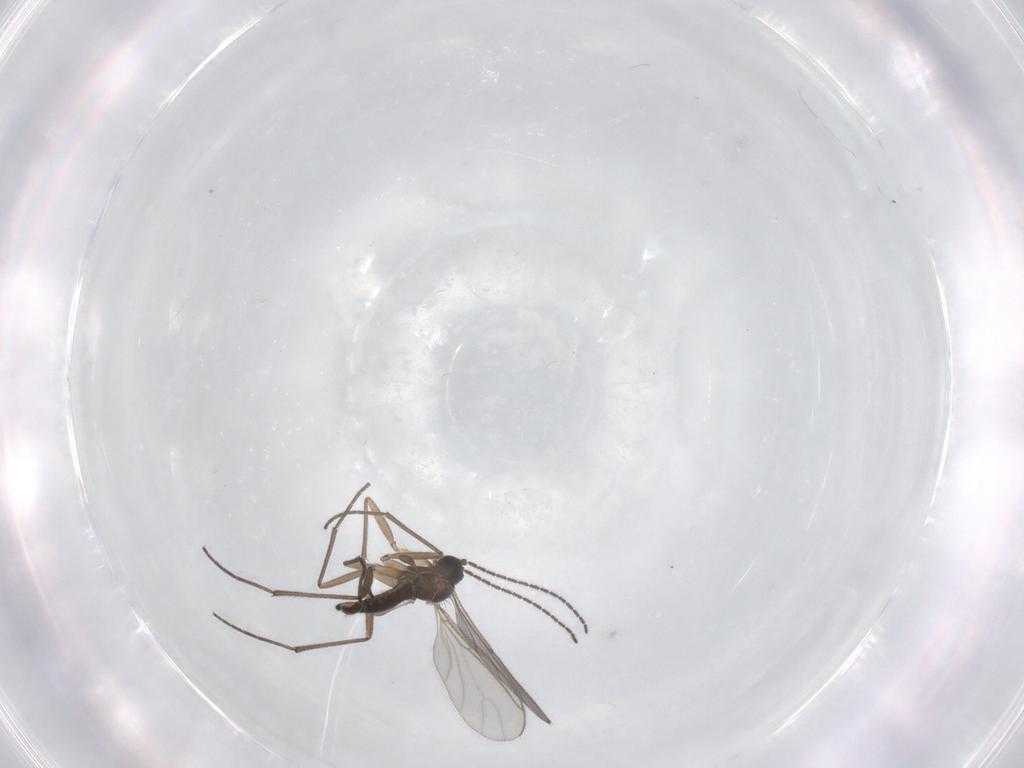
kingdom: Animalia
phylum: Arthropoda
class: Insecta
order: Diptera
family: Sciaridae
